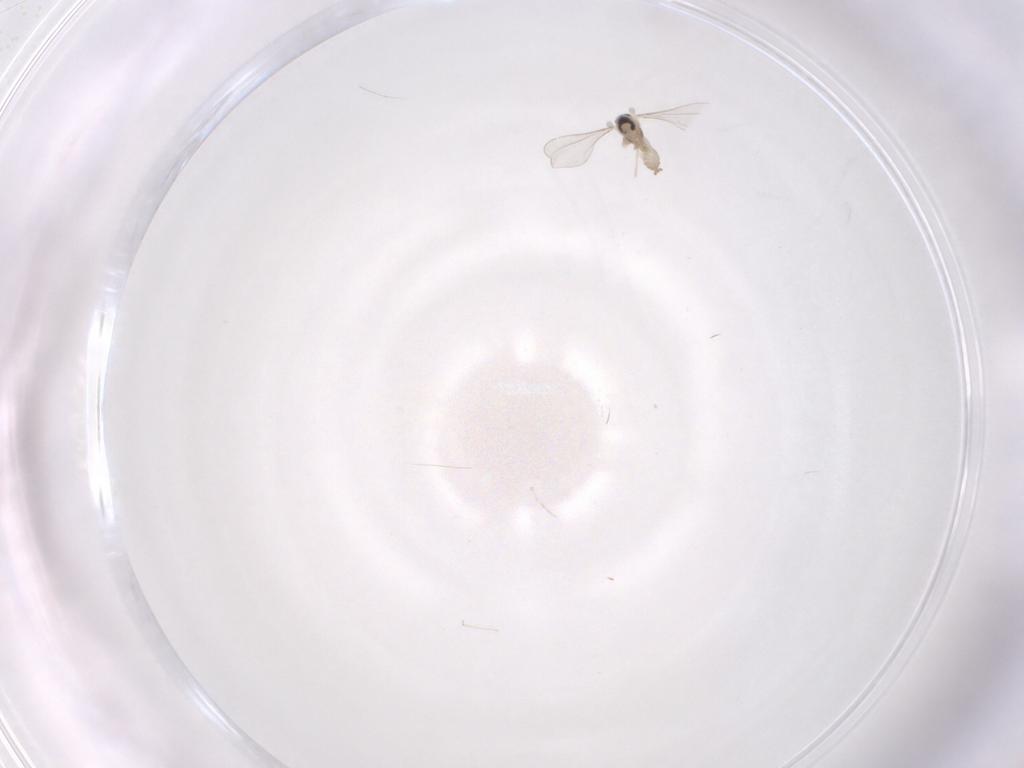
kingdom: Animalia
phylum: Arthropoda
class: Insecta
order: Diptera
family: Cecidomyiidae
